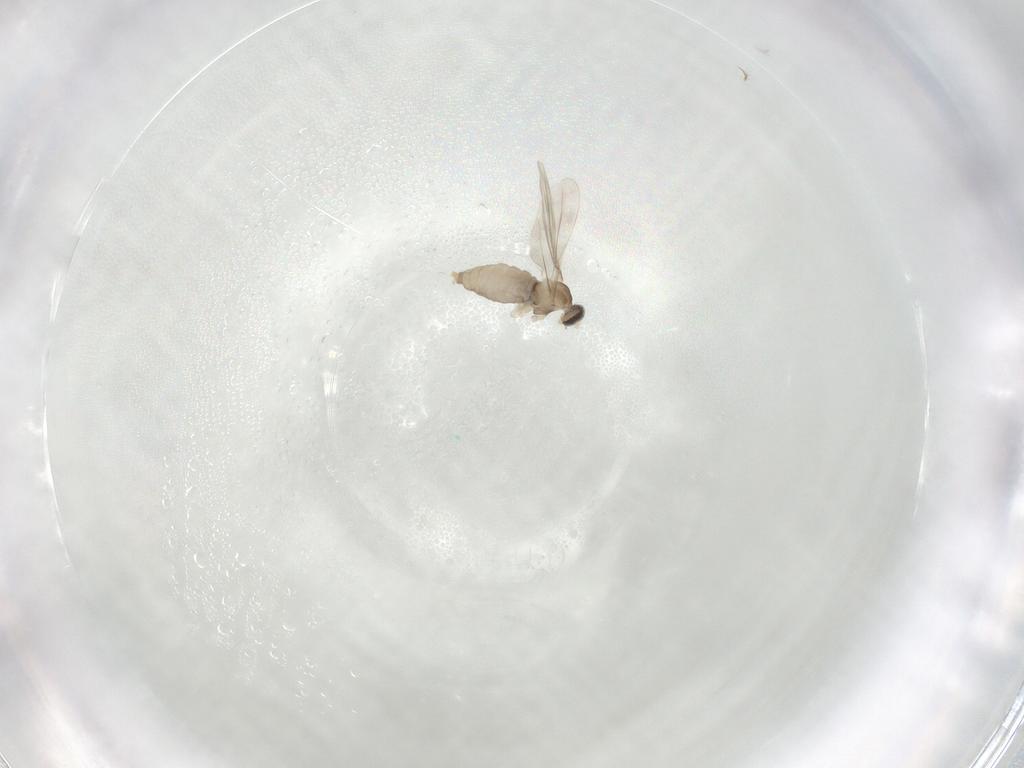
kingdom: Animalia
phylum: Arthropoda
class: Insecta
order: Diptera
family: Cecidomyiidae
